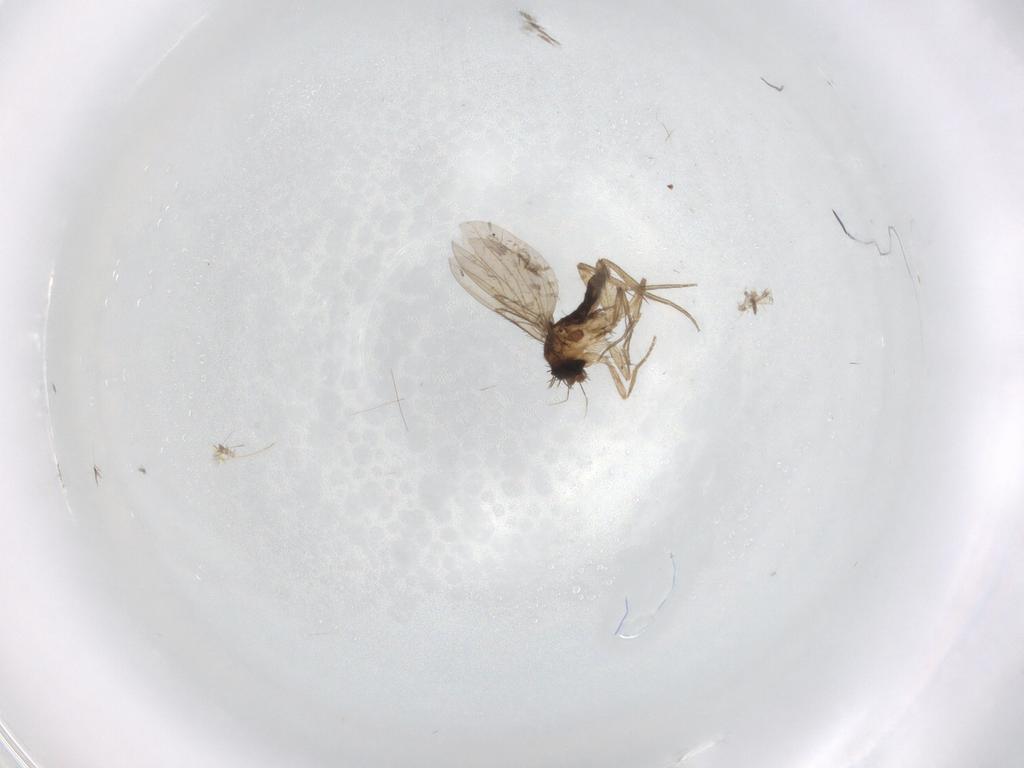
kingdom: Animalia
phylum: Arthropoda
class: Insecta
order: Diptera
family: Phoridae
